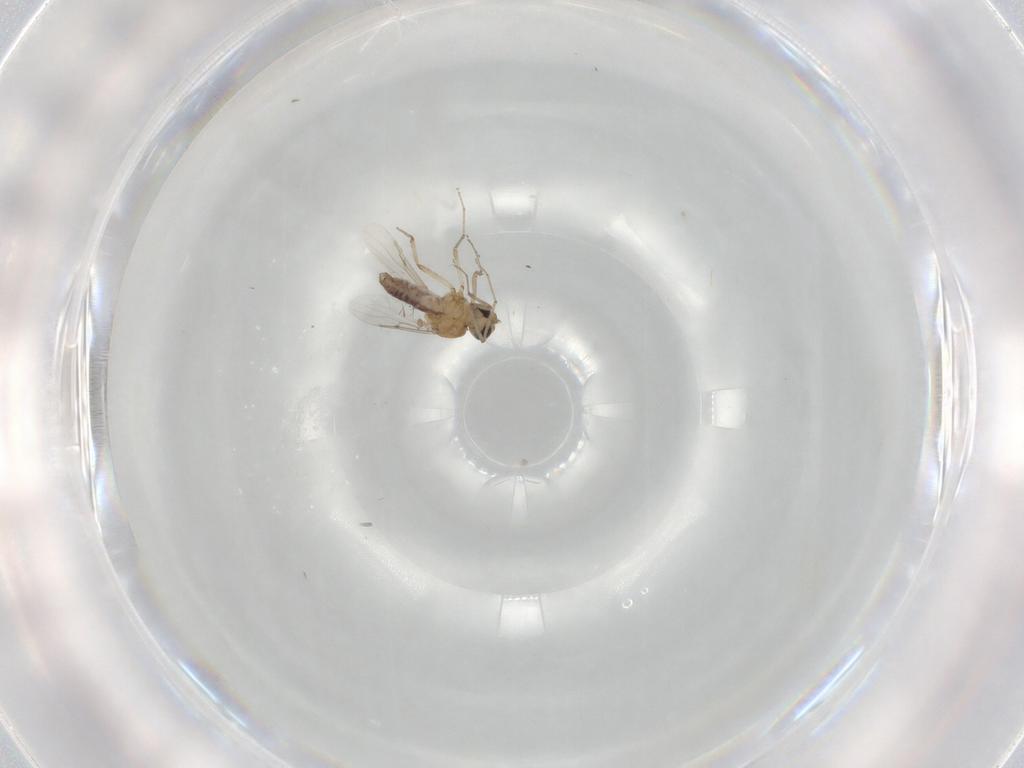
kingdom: Animalia
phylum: Arthropoda
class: Insecta
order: Diptera
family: Ceratopogonidae
